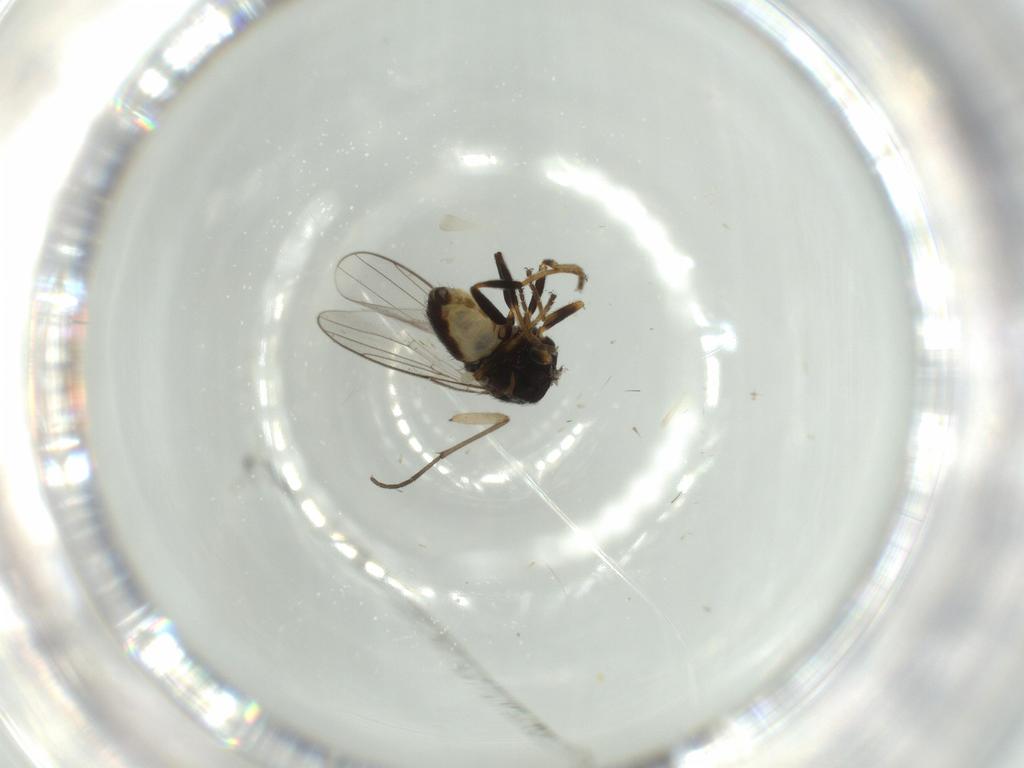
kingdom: Animalia
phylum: Arthropoda
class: Insecta
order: Diptera
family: Chloropidae
